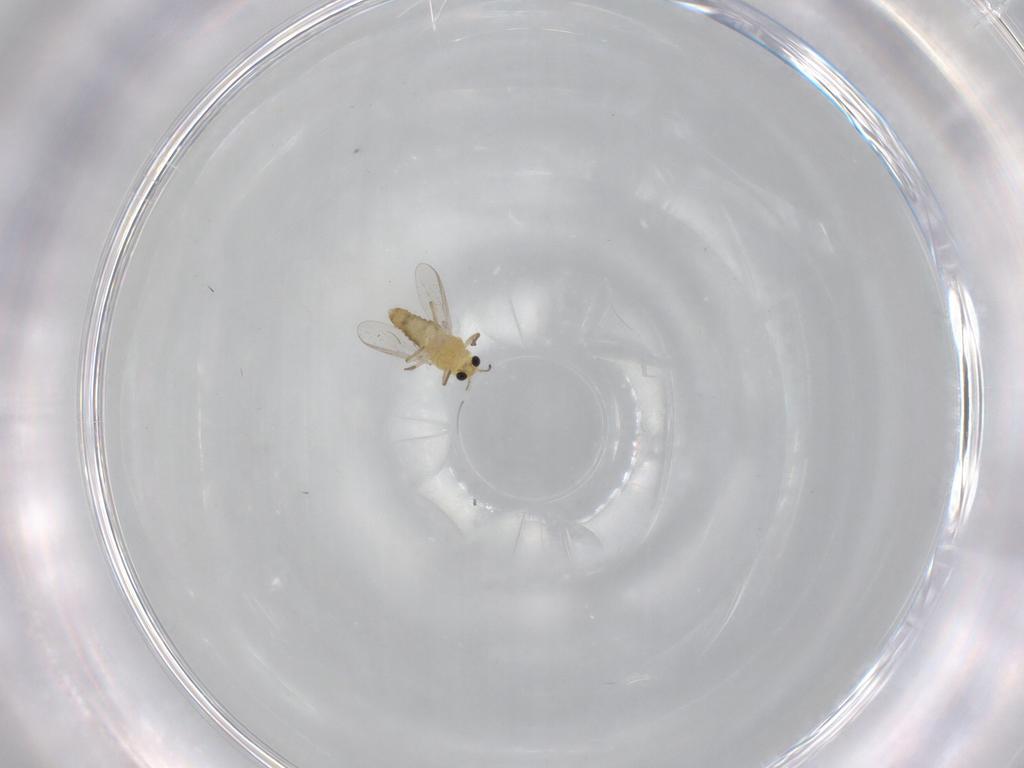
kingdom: Animalia
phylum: Arthropoda
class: Insecta
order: Diptera
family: Chironomidae
